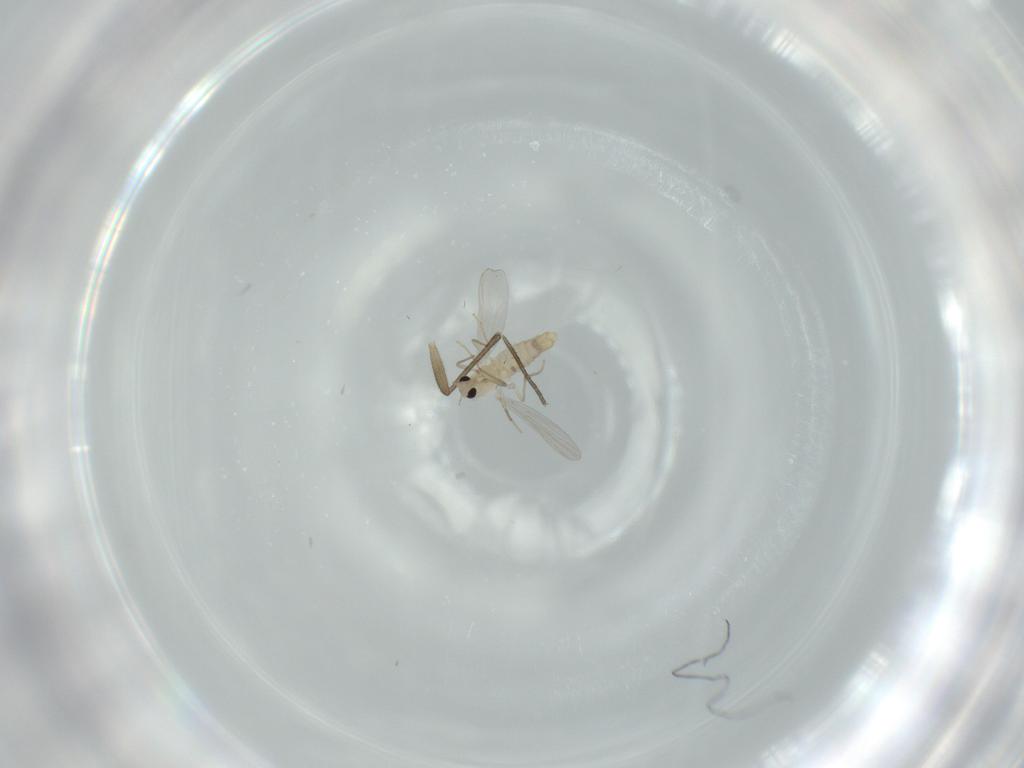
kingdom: Animalia
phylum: Arthropoda
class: Insecta
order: Diptera
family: Chironomidae
